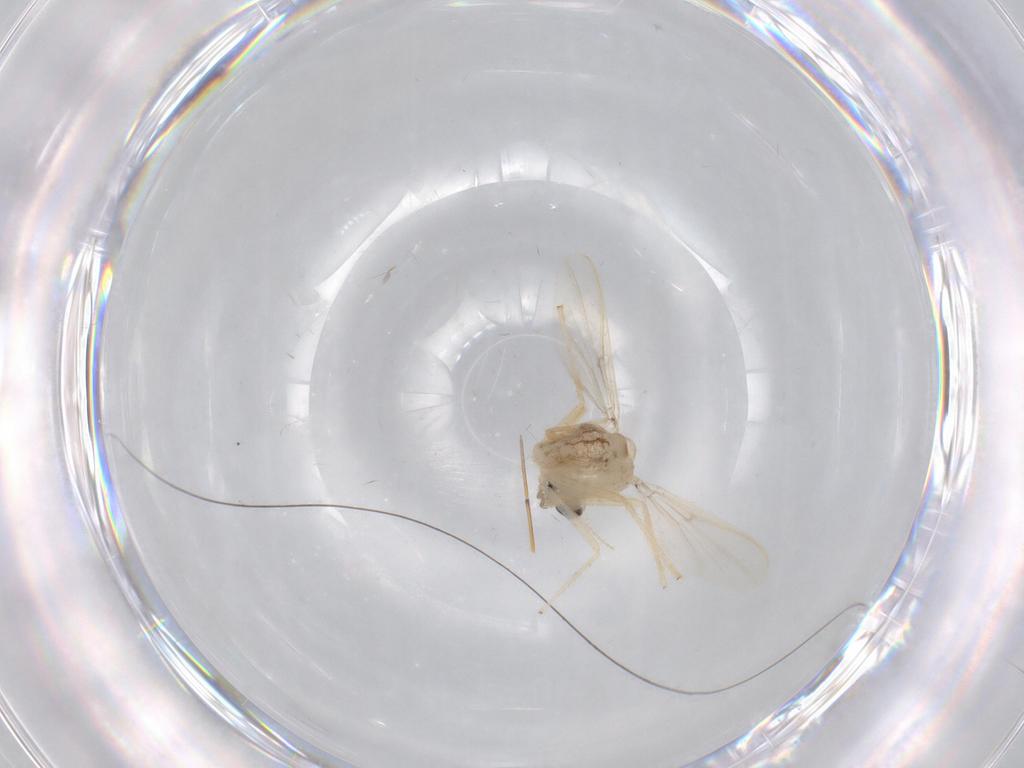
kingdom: Animalia
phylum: Arthropoda
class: Insecta
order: Diptera
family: Chironomidae
